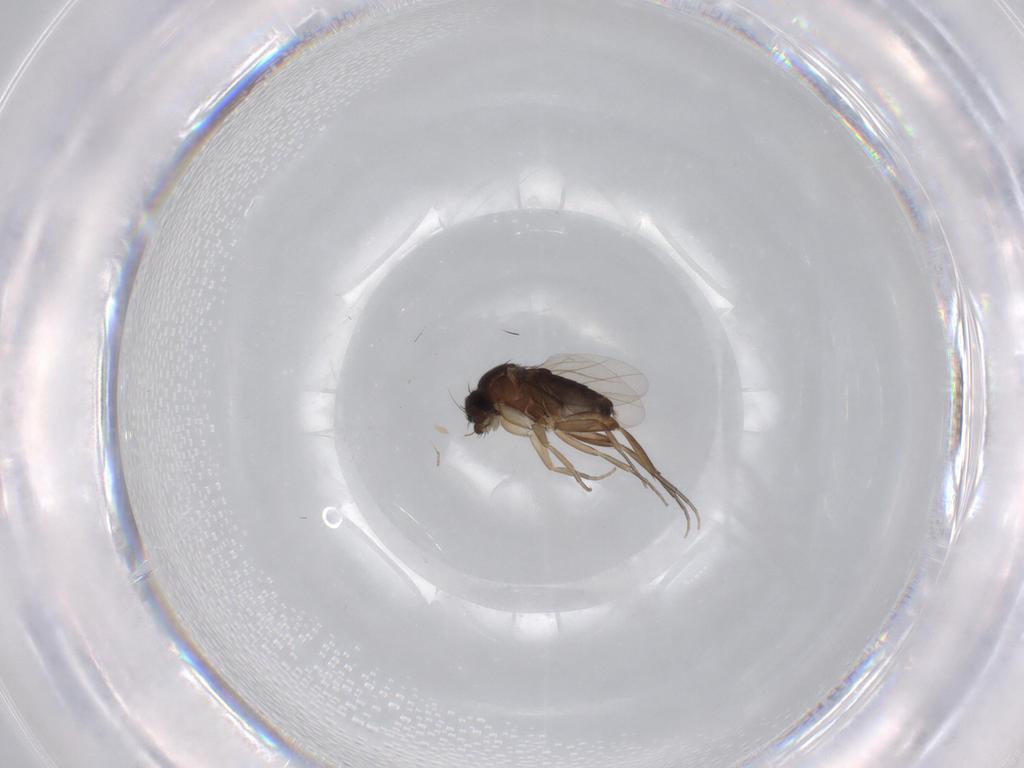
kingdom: Animalia
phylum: Arthropoda
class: Insecta
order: Diptera
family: Phoridae
